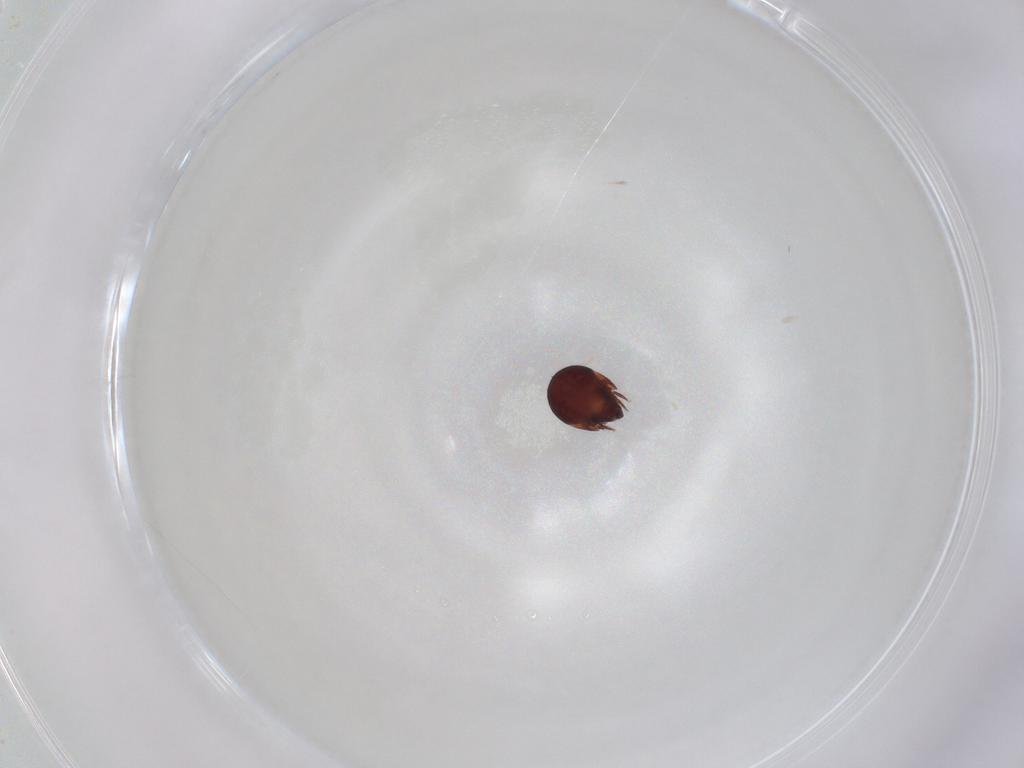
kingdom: Animalia
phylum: Arthropoda
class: Arachnida
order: Sarcoptiformes
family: Humerobatidae
